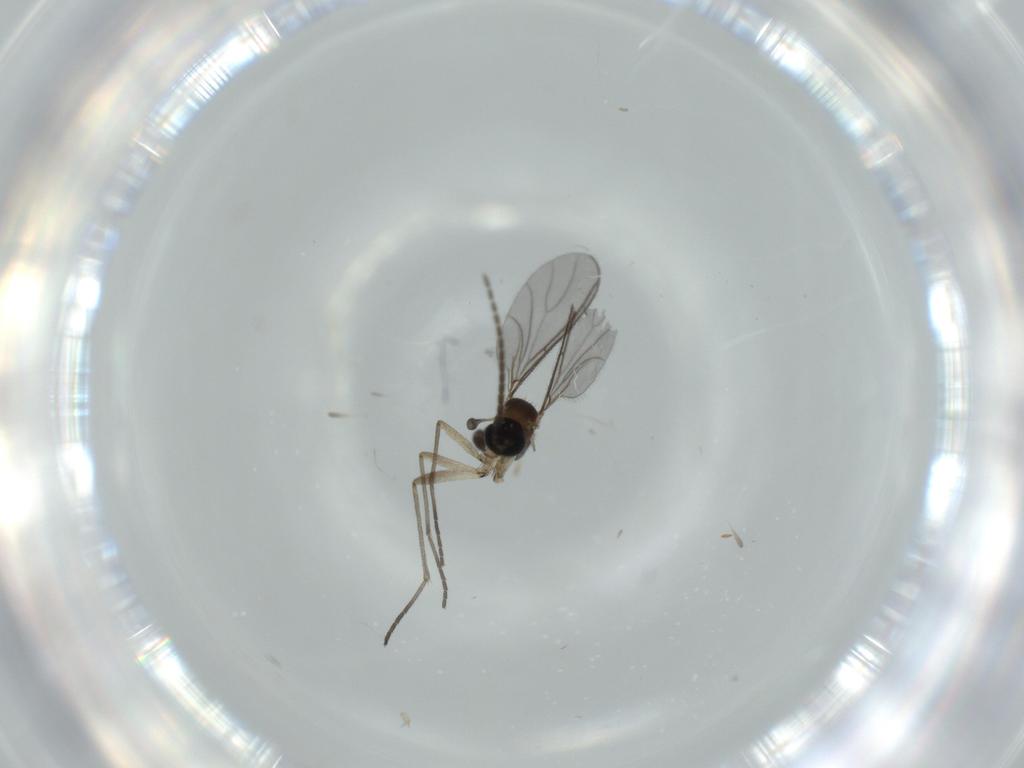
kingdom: Animalia
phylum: Arthropoda
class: Insecta
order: Diptera
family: Sciaridae
